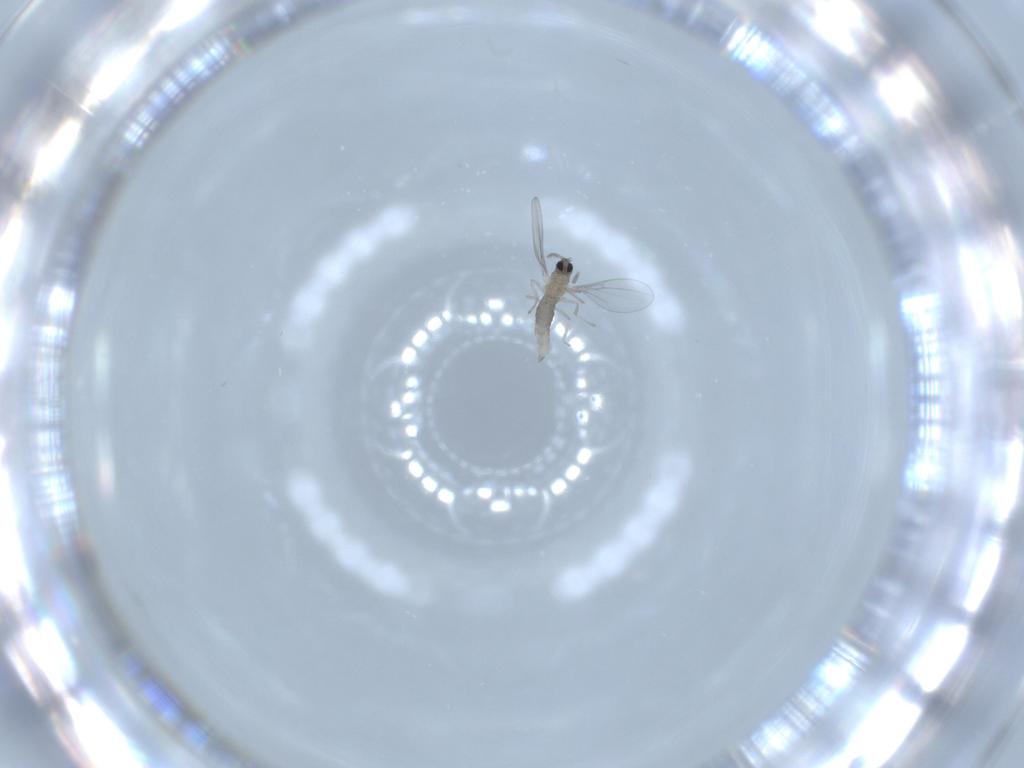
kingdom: Animalia
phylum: Arthropoda
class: Insecta
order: Diptera
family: Cecidomyiidae
